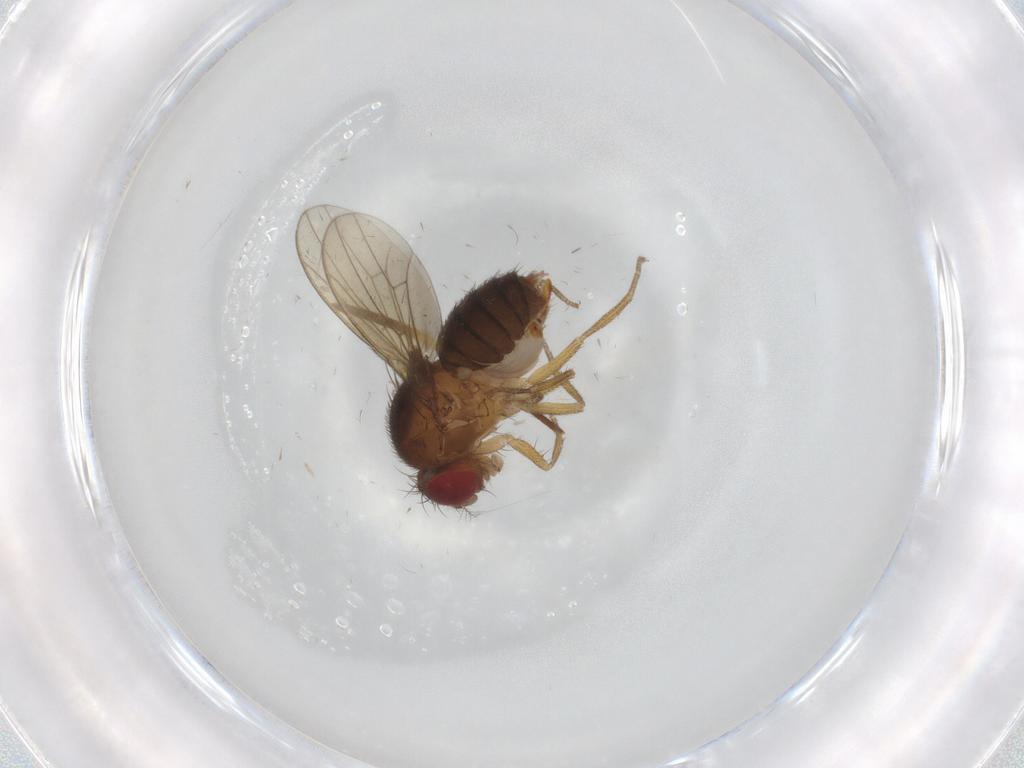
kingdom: Animalia
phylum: Arthropoda
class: Insecta
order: Diptera
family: Drosophilidae
